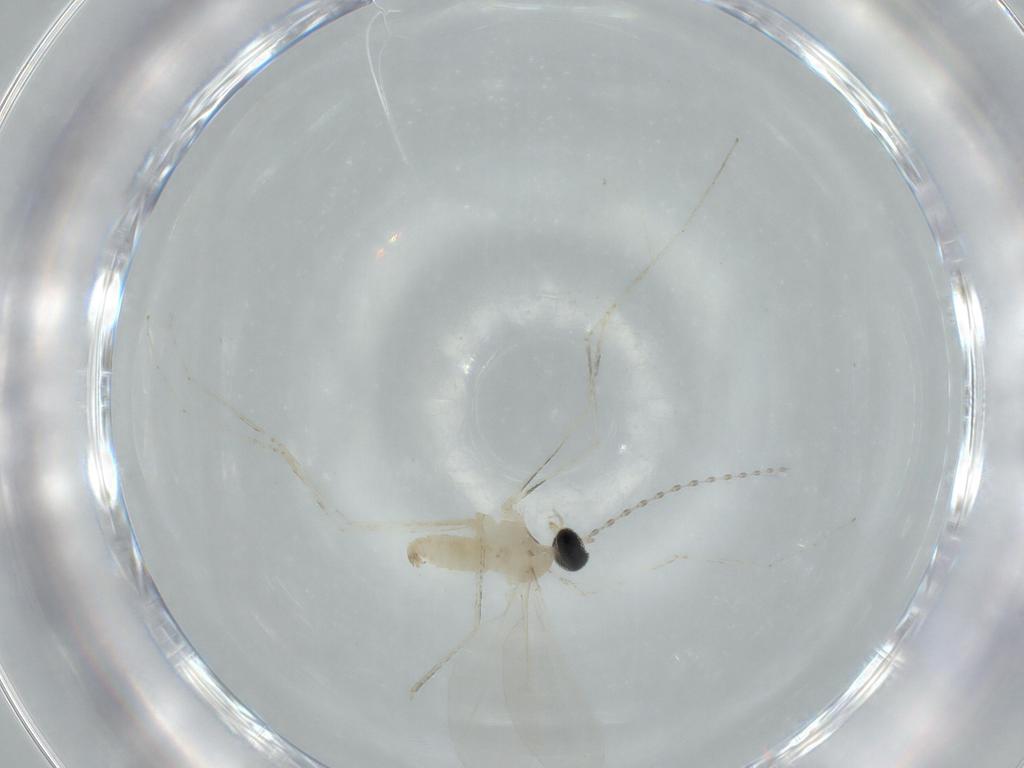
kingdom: Animalia
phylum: Arthropoda
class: Insecta
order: Diptera
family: Cecidomyiidae
